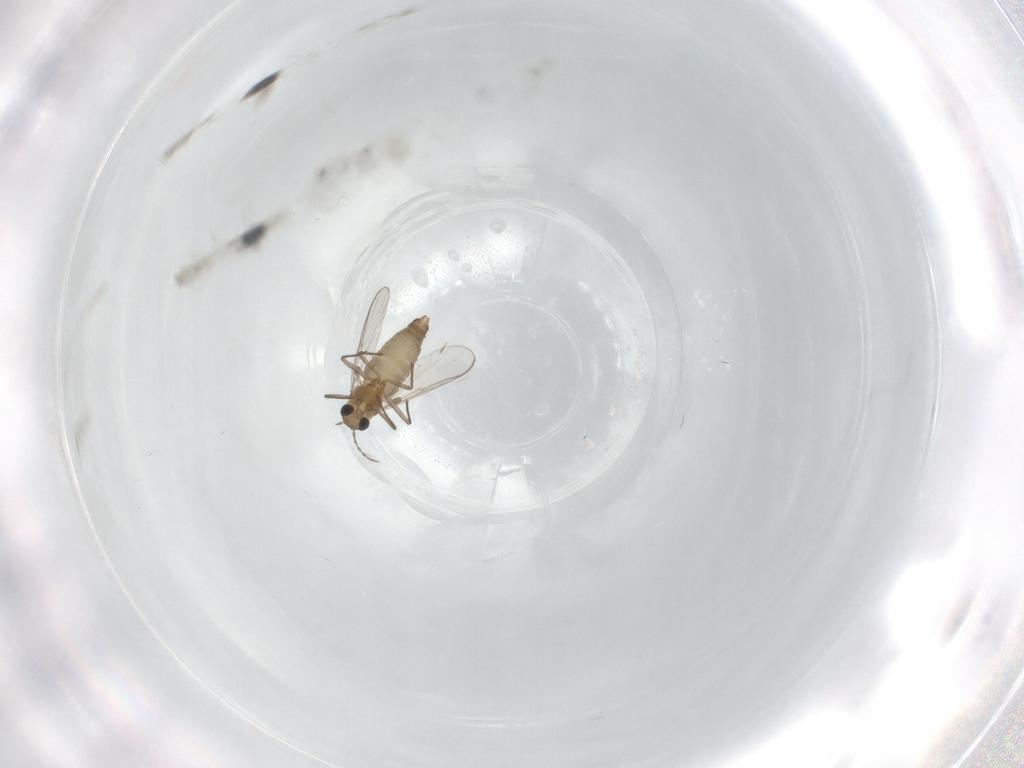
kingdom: Animalia
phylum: Arthropoda
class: Insecta
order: Diptera
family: Chironomidae
